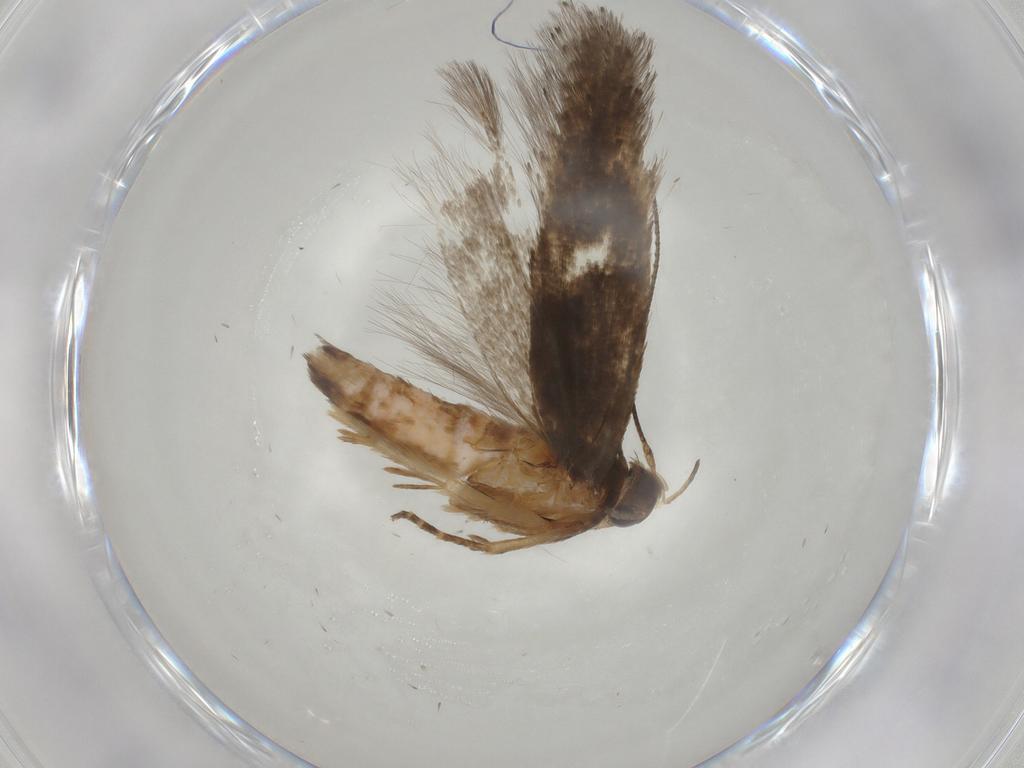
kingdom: Animalia
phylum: Arthropoda
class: Insecta
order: Lepidoptera
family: Gelechiidae
